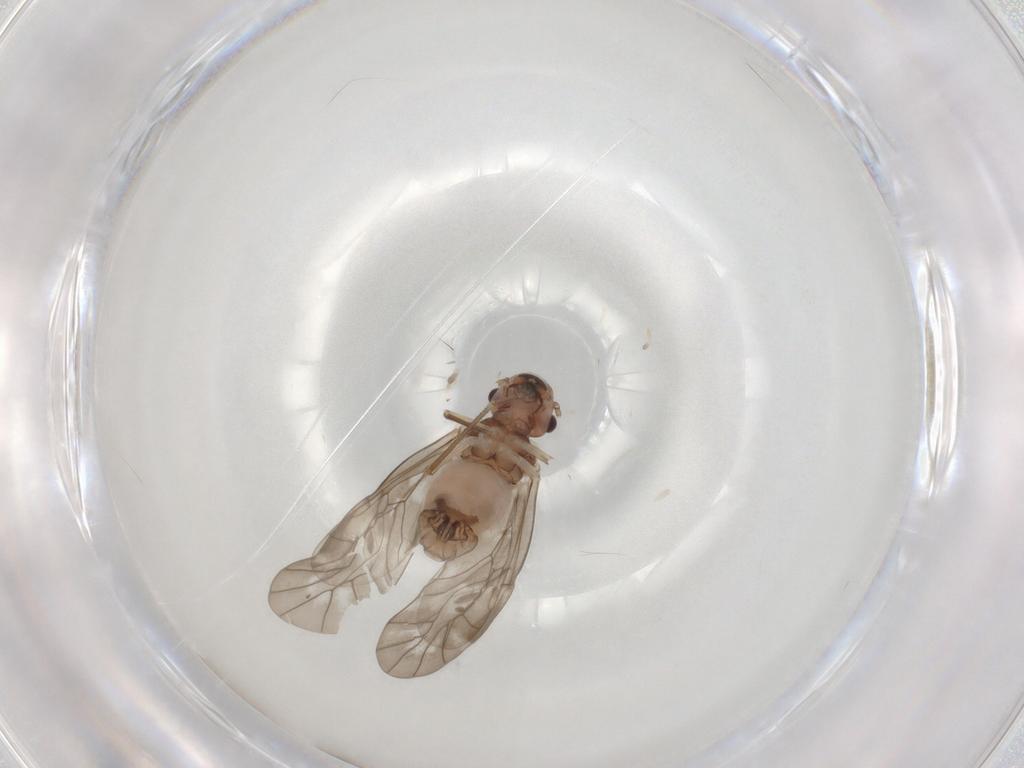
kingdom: Animalia
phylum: Arthropoda
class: Insecta
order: Psocodea
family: Peripsocidae
